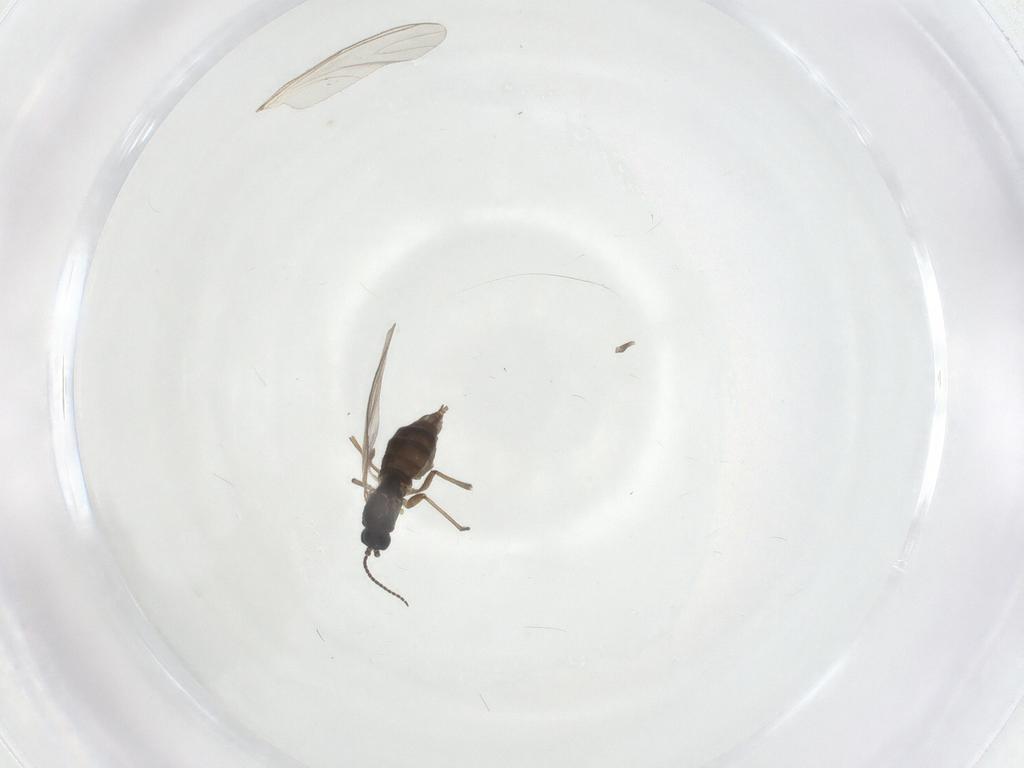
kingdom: Animalia
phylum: Arthropoda
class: Insecta
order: Diptera
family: Sciaridae
